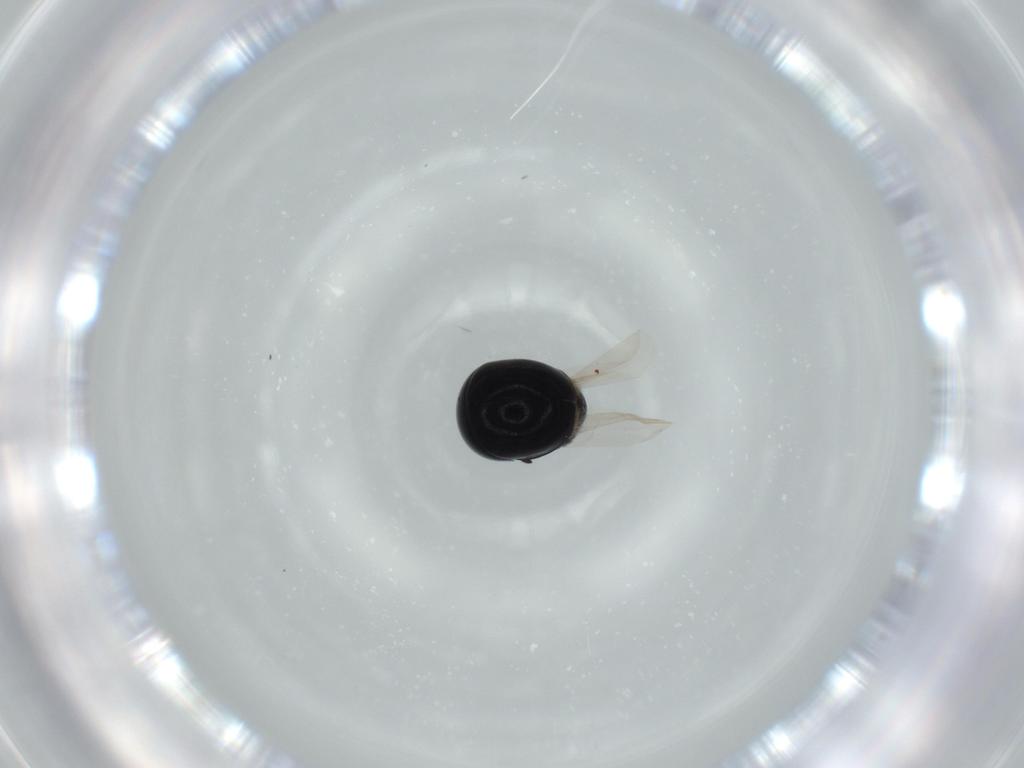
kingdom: Animalia
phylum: Arthropoda
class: Insecta
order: Coleoptera
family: Cybocephalidae
